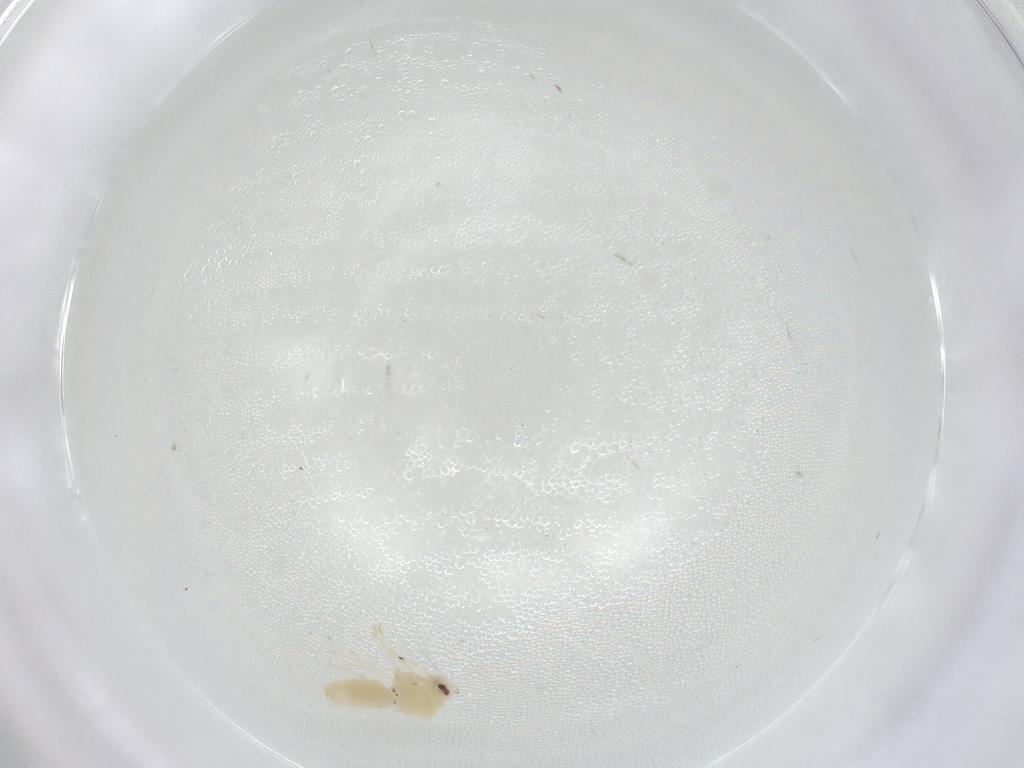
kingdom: Animalia
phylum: Arthropoda
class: Insecta
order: Hemiptera
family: Aleyrodidae
